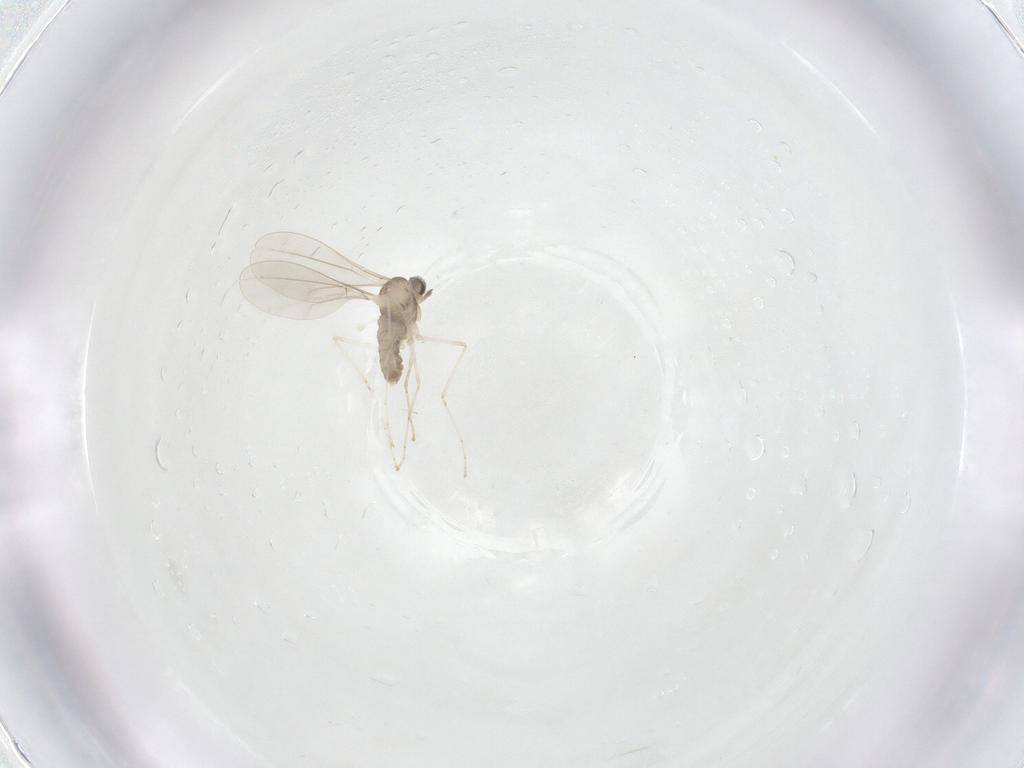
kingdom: Animalia
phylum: Arthropoda
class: Insecta
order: Diptera
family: Cecidomyiidae
